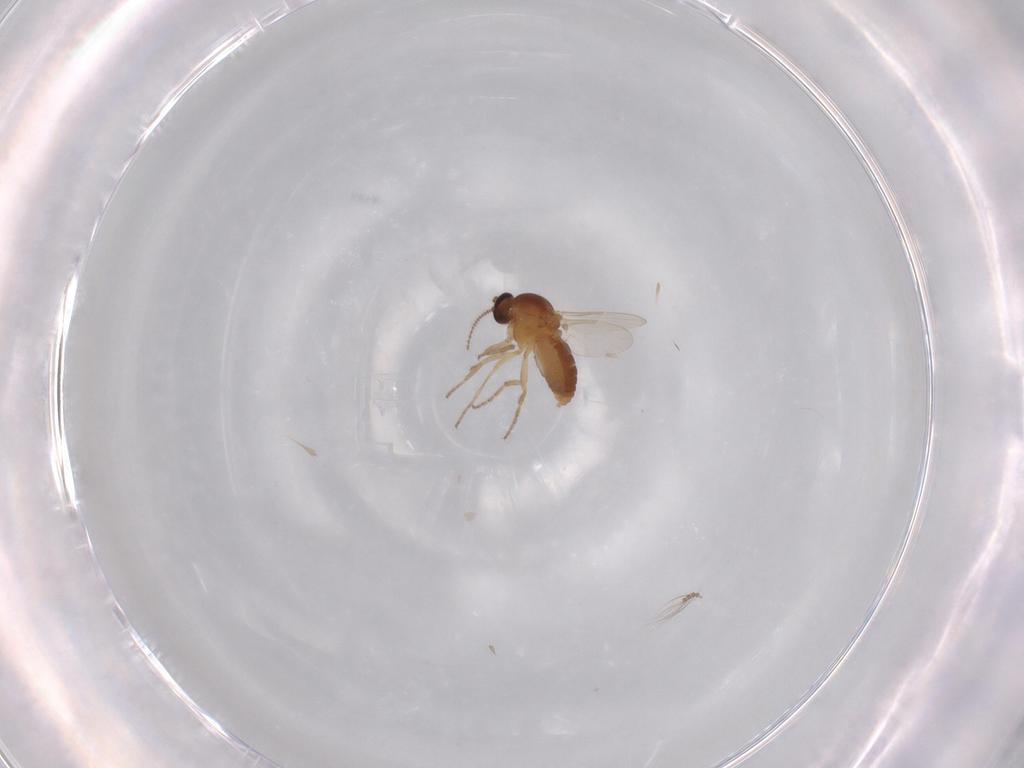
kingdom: Animalia
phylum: Arthropoda
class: Insecta
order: Diptera
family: Ceratopogonidae
